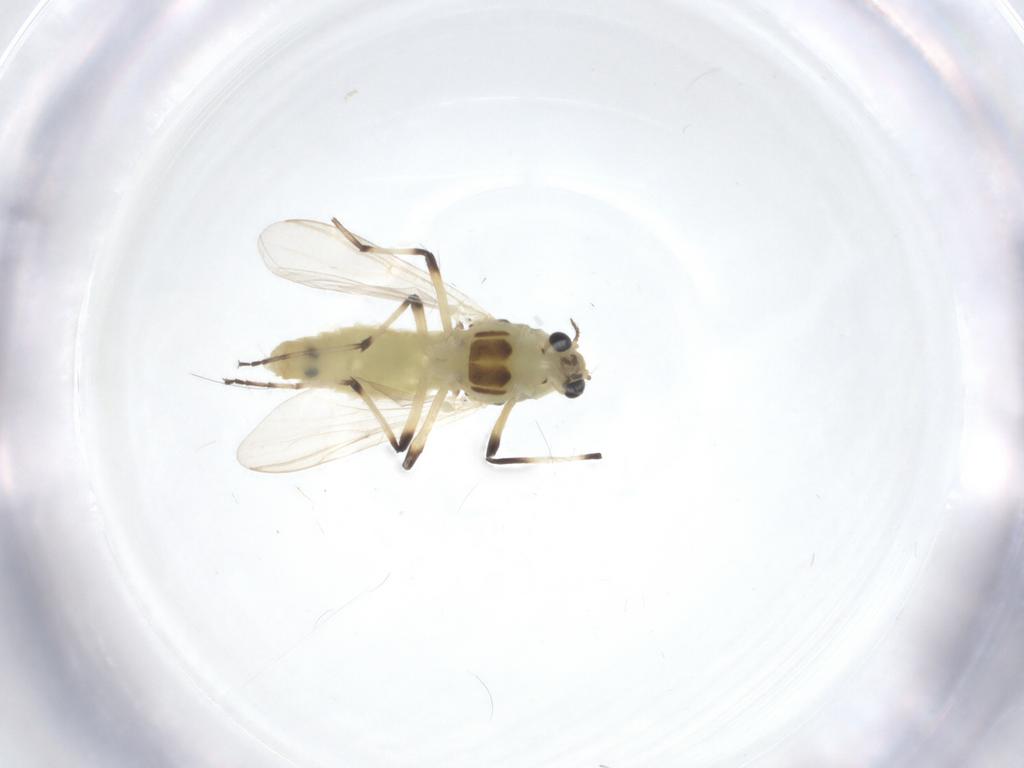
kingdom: Animalia
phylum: Arthropoda
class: Insecta
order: Diptera
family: Chironomidae
